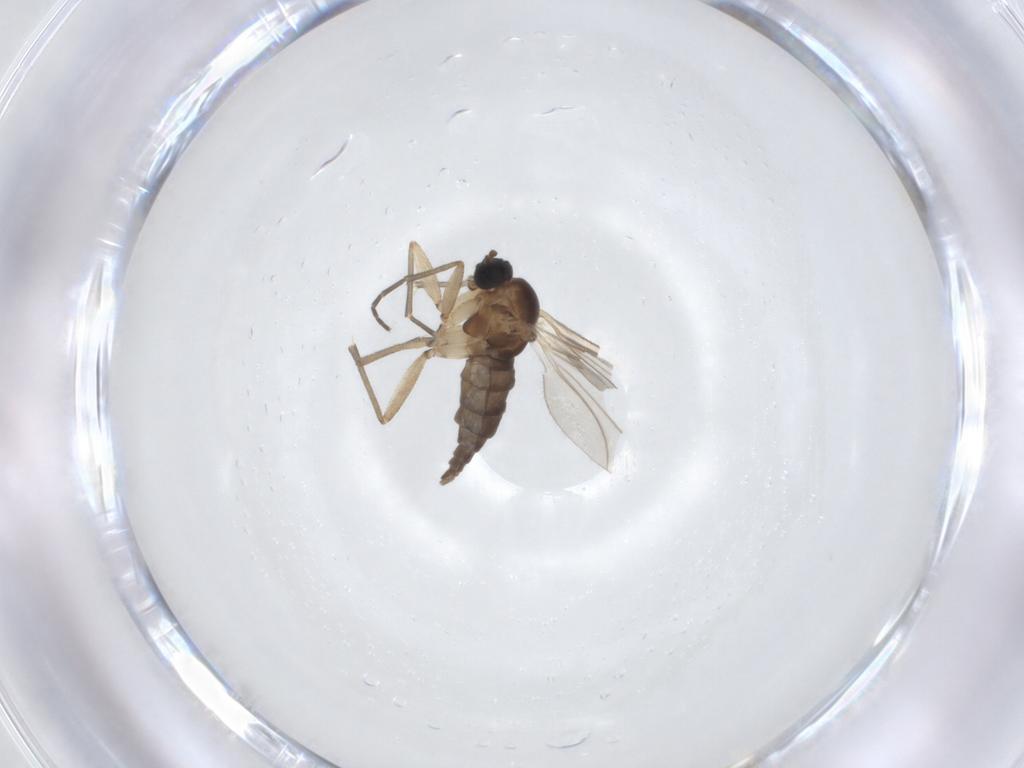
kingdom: Animalia
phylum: Arthropoda
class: Insecta
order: Diptera
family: Sciaridae
